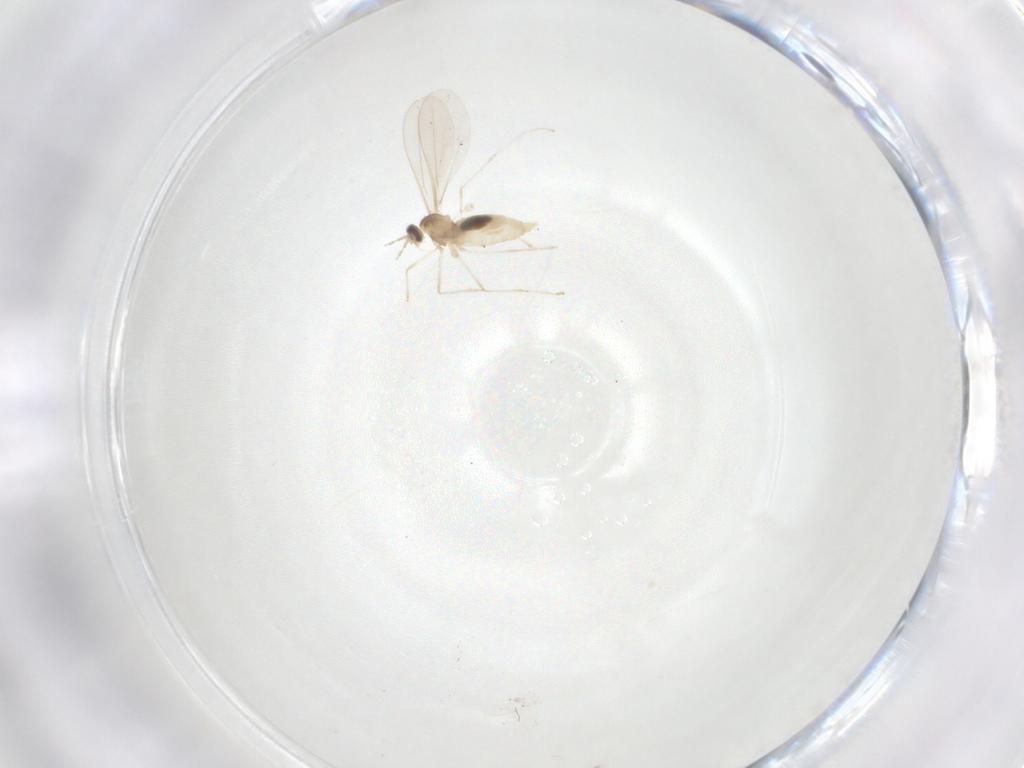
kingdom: Animalia
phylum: Arthropoda
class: Insecta
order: Diptera
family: Cecidomyiidae
